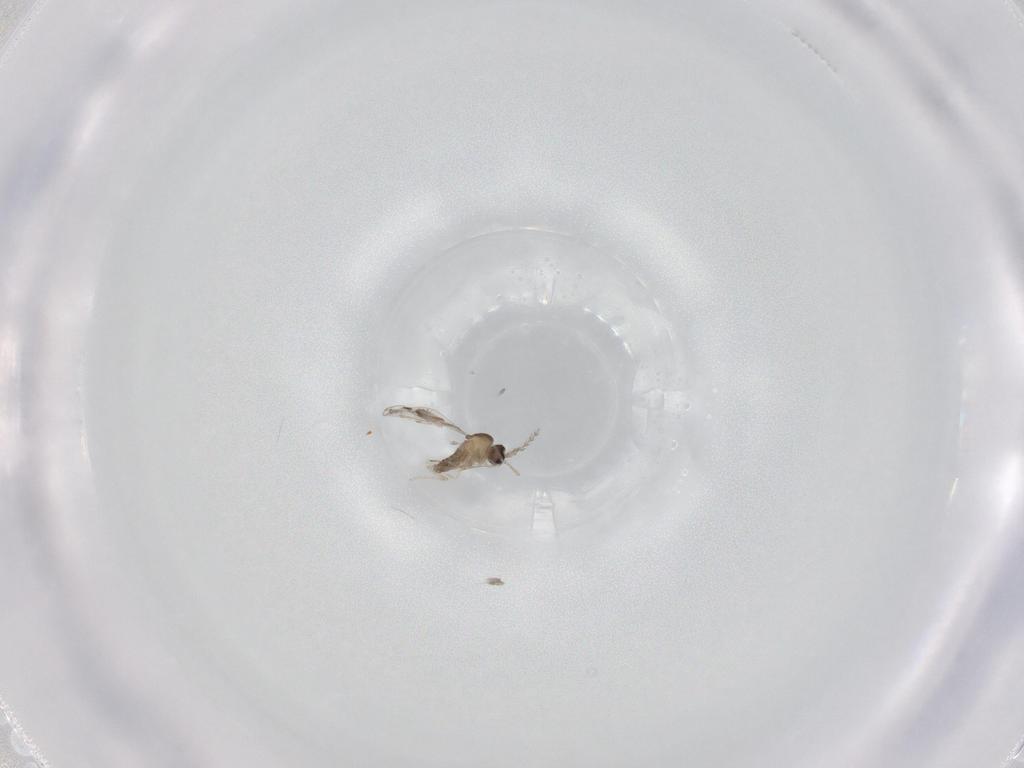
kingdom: Animalia
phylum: Arthropoda
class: Insecta
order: Diptera
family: Cecidomyiidae
